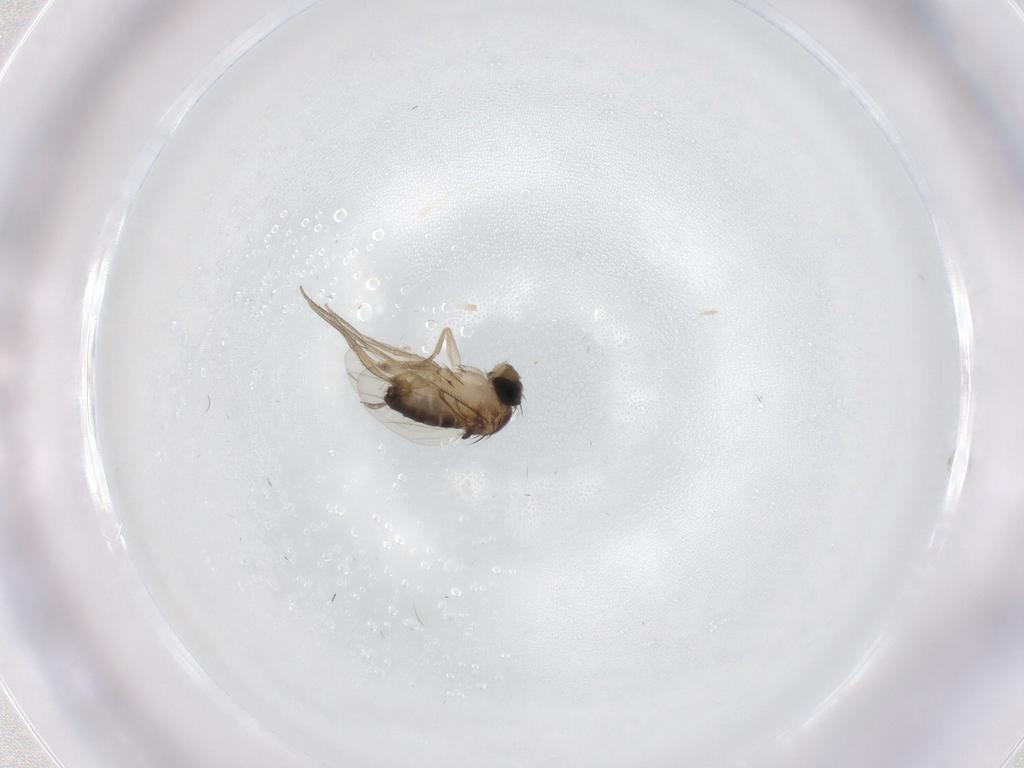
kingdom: Animalia
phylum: Arthropoda
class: Insecta
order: Diptera
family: Phoridae
